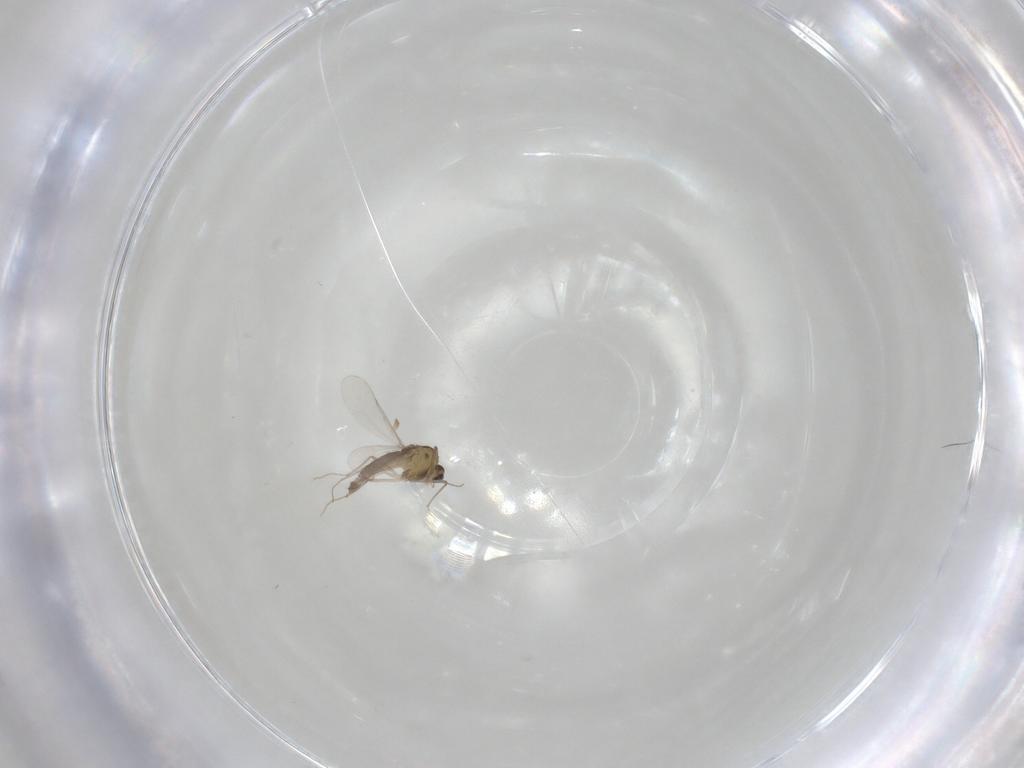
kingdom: Animalia
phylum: Arthropoda
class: Insecta
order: Diptera
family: Chironomidae
